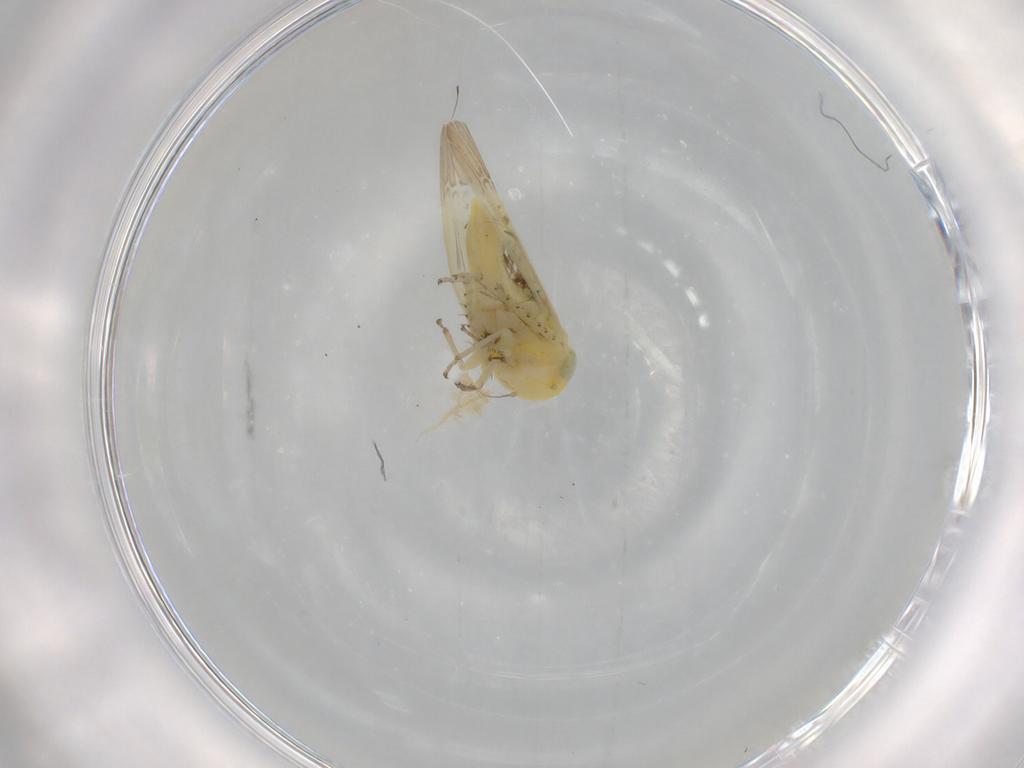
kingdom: Animalia
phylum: Arthropoda
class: Insecta
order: Hemiptera
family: Cicadellidae
